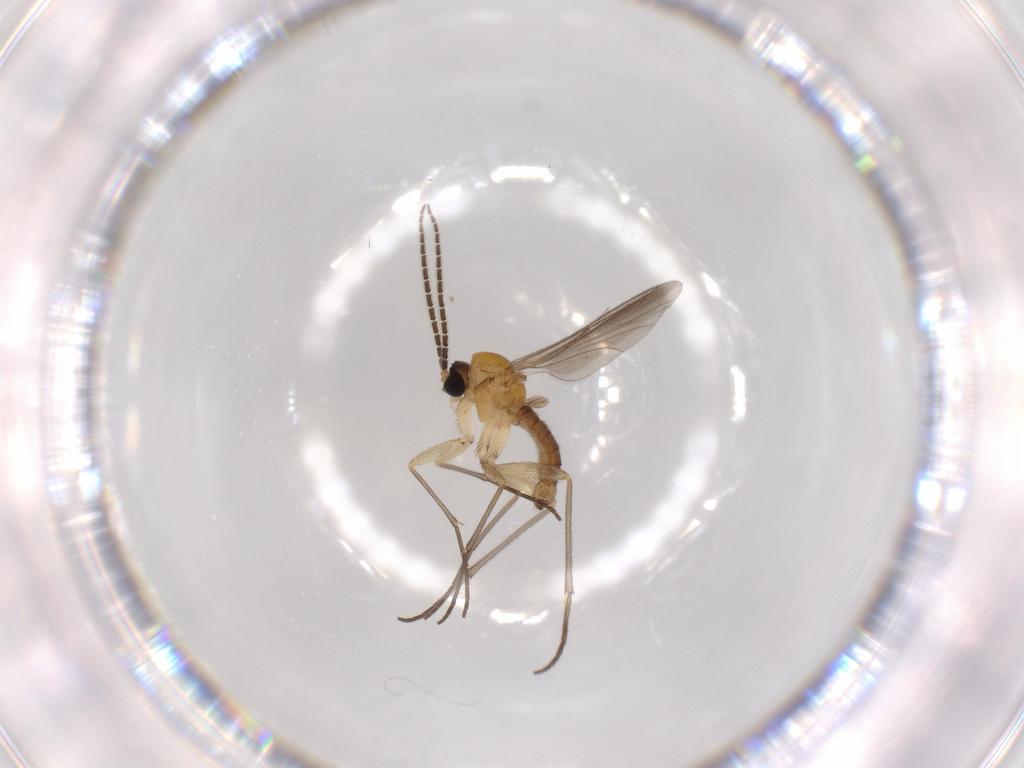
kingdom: Animalia
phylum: Arthropoda
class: Insecta
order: Diptera
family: Sciaridae
